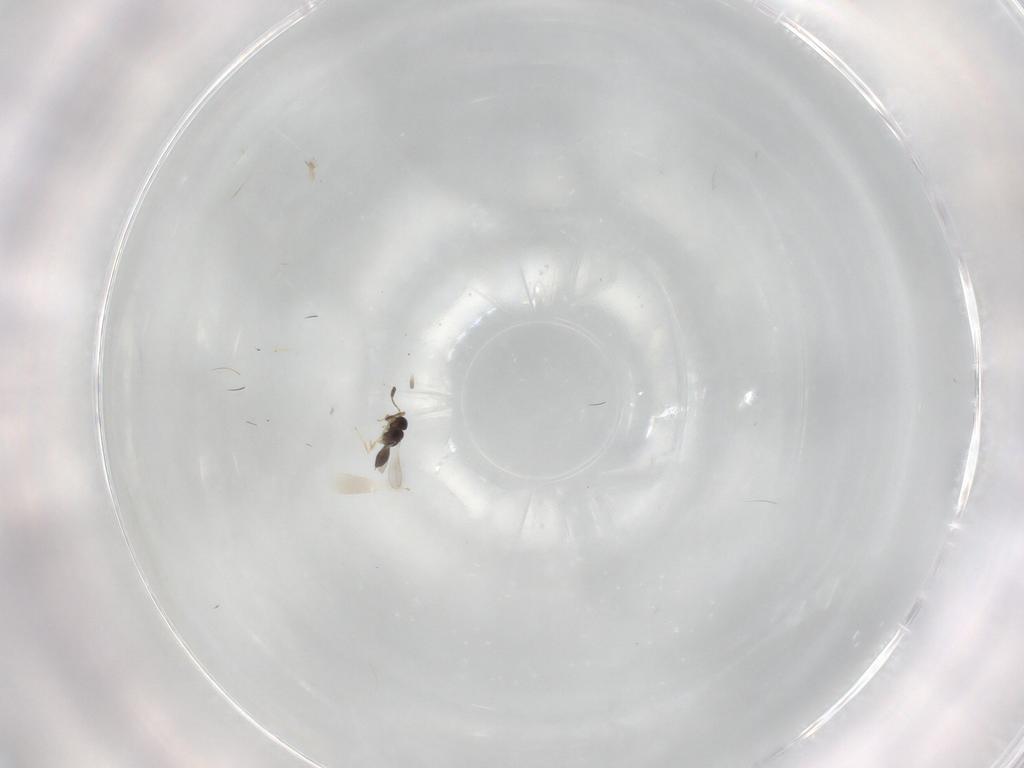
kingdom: Animalia
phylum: Arthropoda
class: Insecta
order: Hymenoptera
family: Scelionidae
